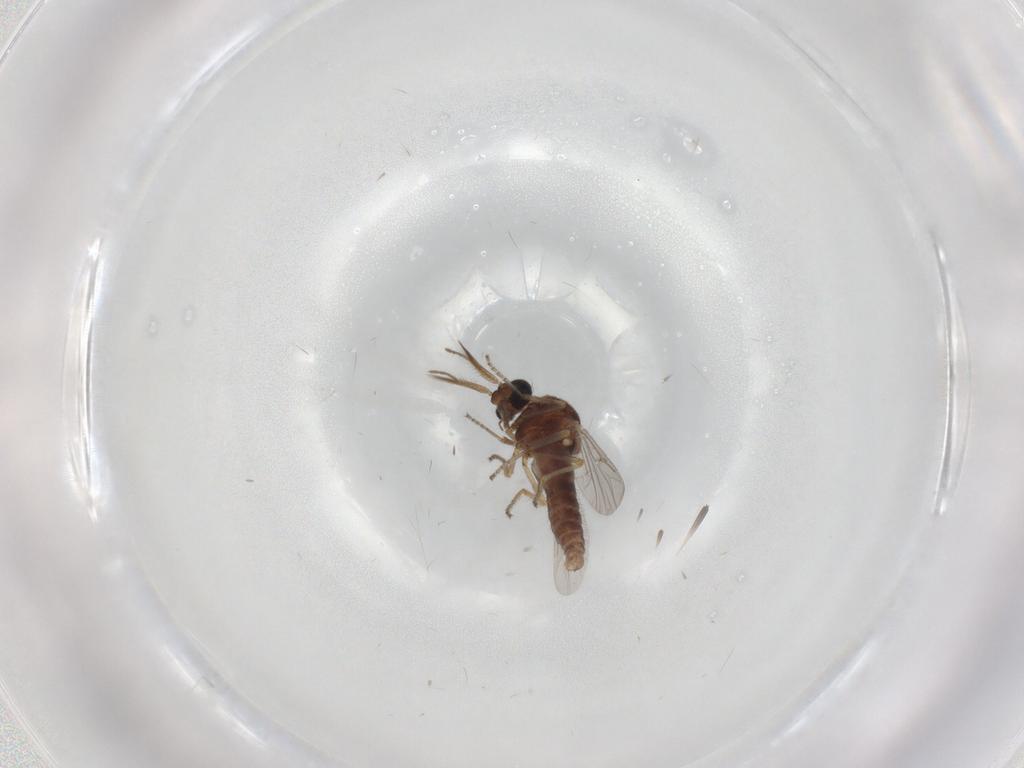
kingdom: Animalia
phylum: Arthropoda
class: Insecta
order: Diptera
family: Ceratopogonidae
